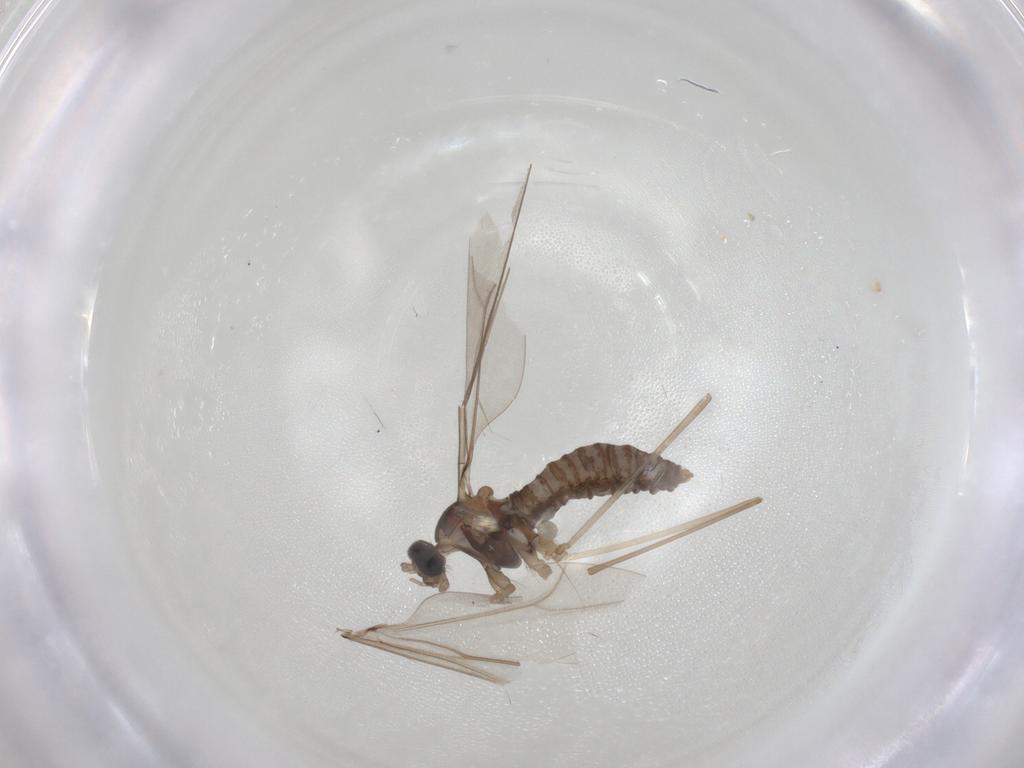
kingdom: Animalia
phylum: Arthropoda
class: Insecta
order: Diptera
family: Cecidomyiidae
